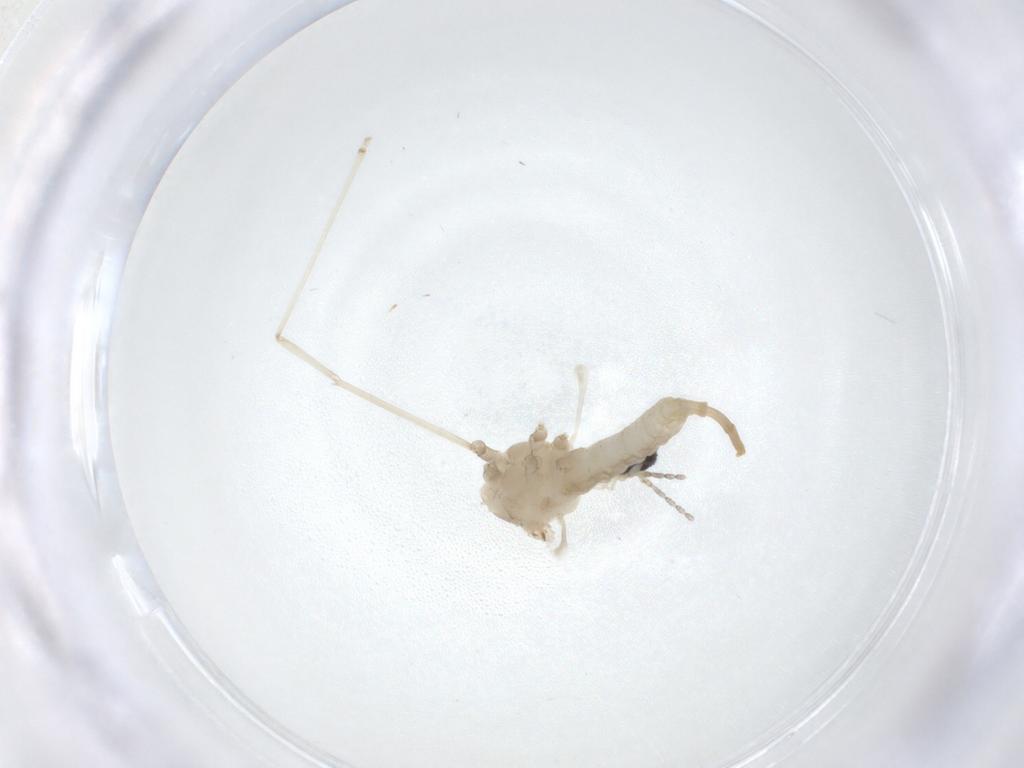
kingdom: Animalia
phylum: Arthropoda
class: Insecta
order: Diptera
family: Cecidomyiidae
